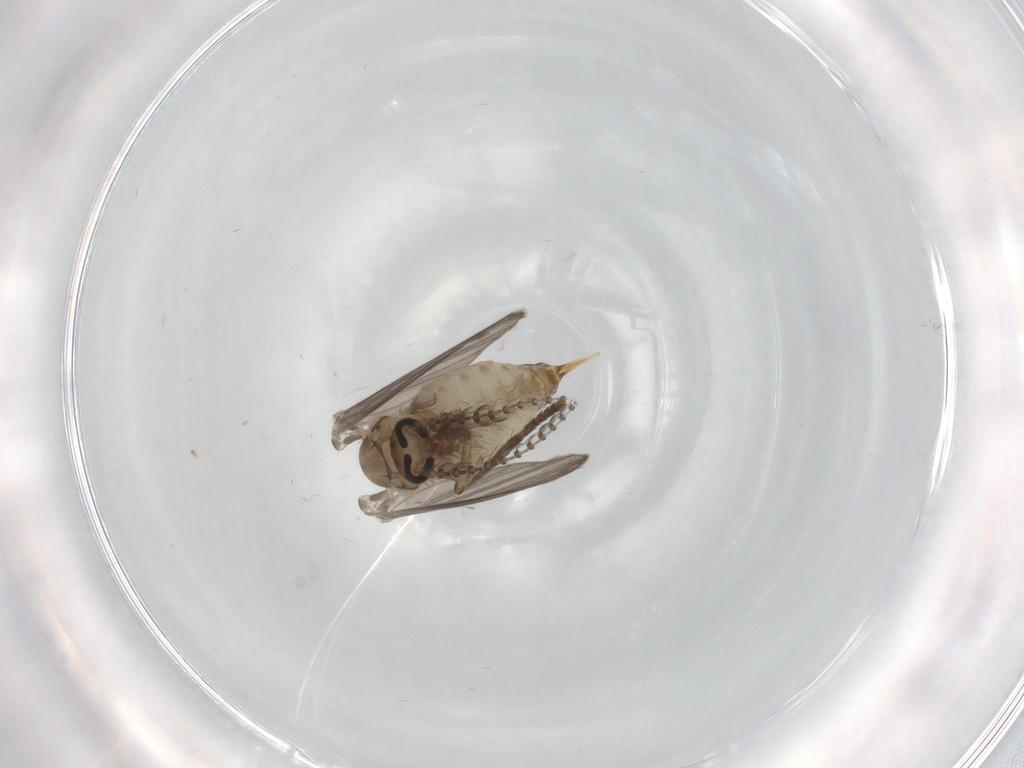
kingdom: Animalia
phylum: Arthropoda
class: Insecta
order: Diptera
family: Psychodidae
